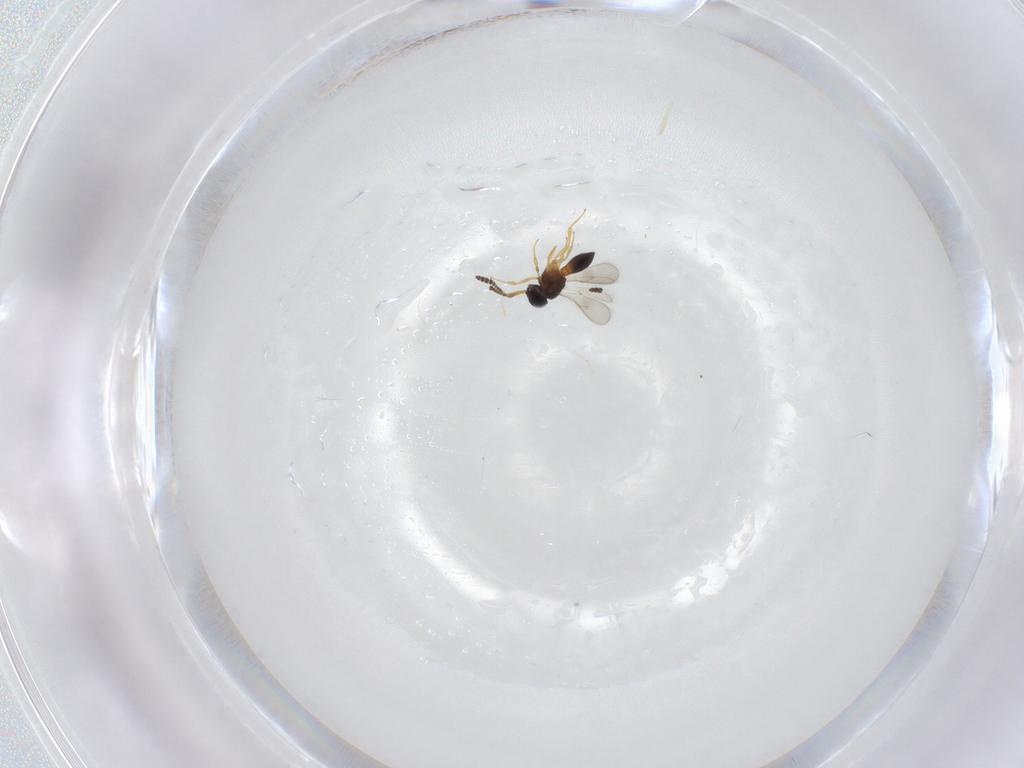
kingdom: Animalia
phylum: Arthropoda
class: Insecta
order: Hymenoptera
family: Scelionidae
